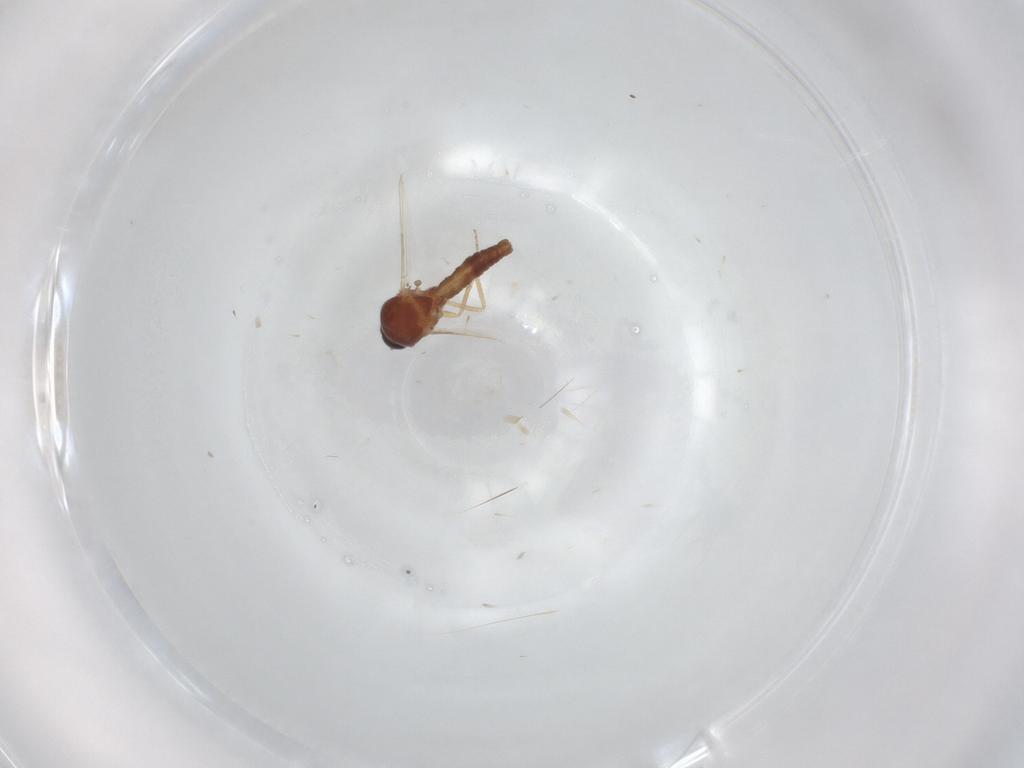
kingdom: Animalia
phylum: Arthropoda
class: Insecta
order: Diptera
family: Psychodidae
